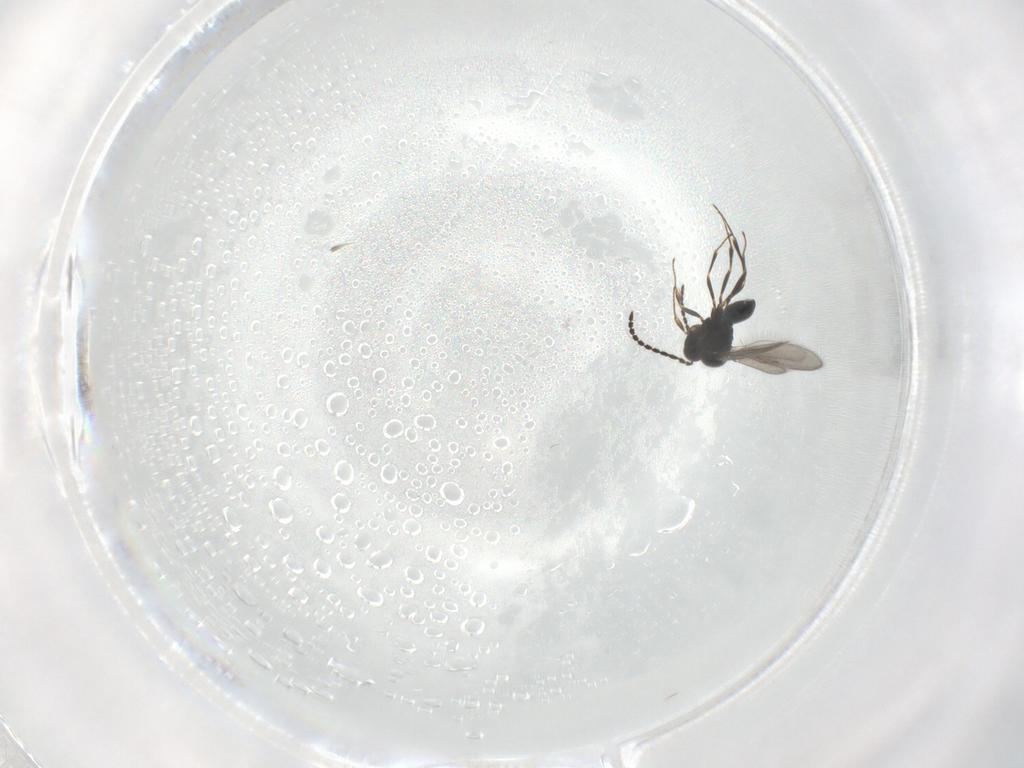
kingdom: Animalia
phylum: Arthropoda
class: Insecta
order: Hymenoptera
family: Scelionidae
